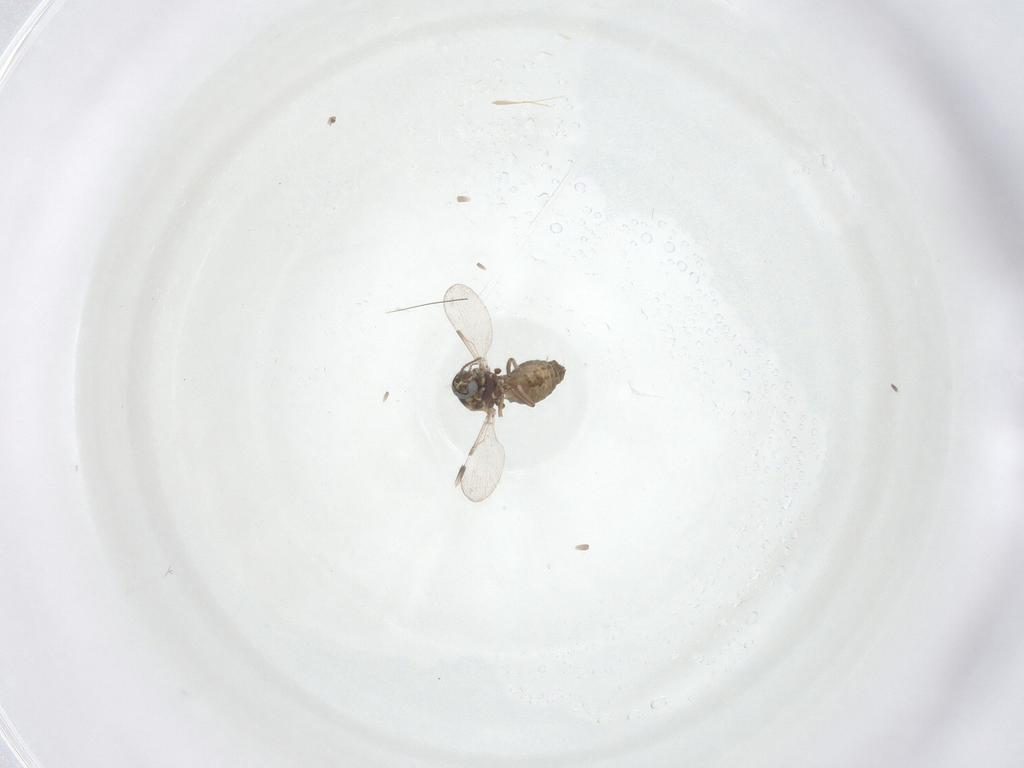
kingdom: Animalia
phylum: Arthropoda
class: Insecta
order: Diptera
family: Ceratopogonidae
